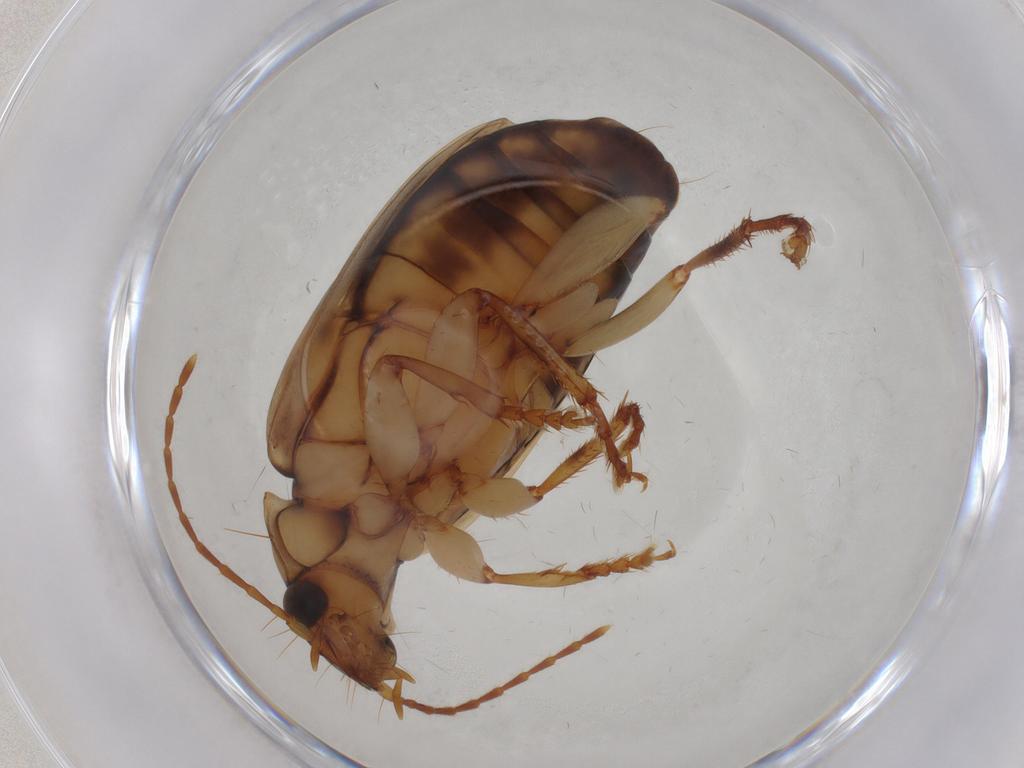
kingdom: Animalia
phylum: Arthropoda
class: Insecta
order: Coleoptera
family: Carabidae
